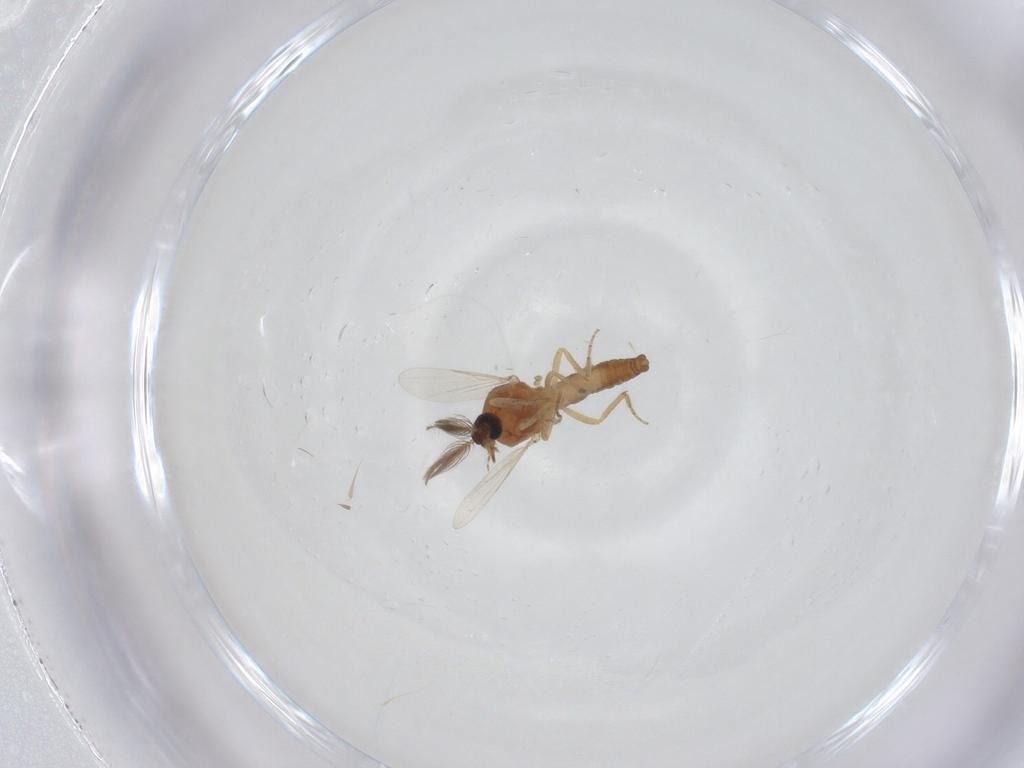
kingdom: Animalia
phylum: Arthropoda
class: Insecta
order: Diptera
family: Ceratopogonidae
